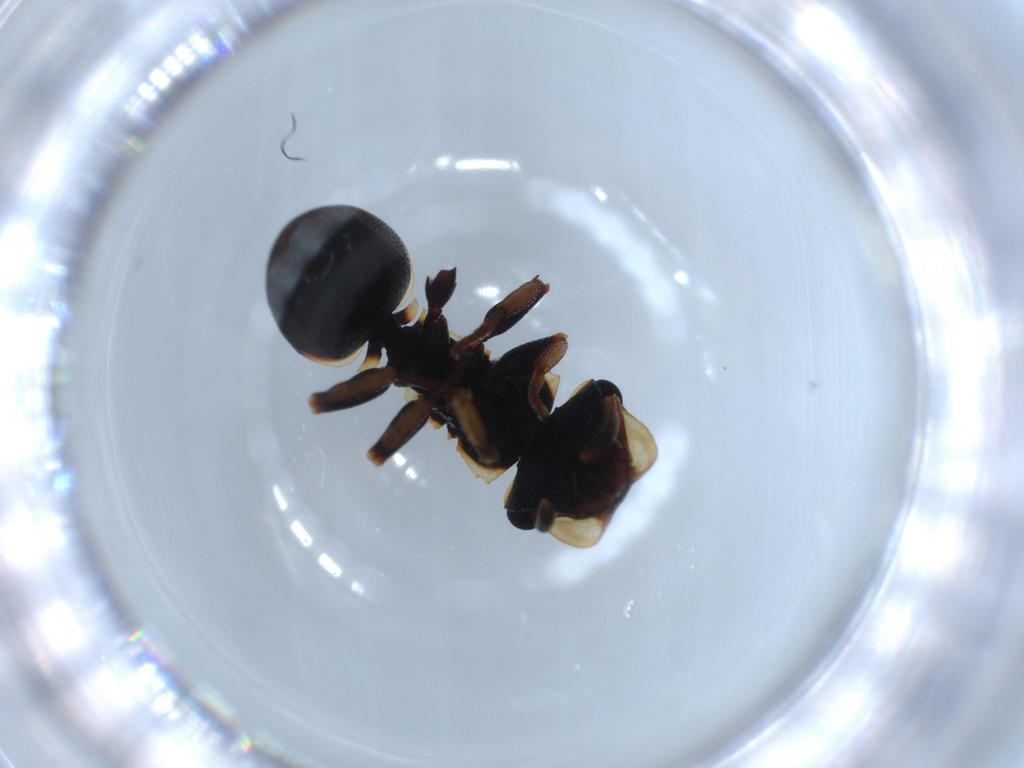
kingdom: Animalia
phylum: Arthropoda
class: Insecta
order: Hymenoptera
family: Formicidae
